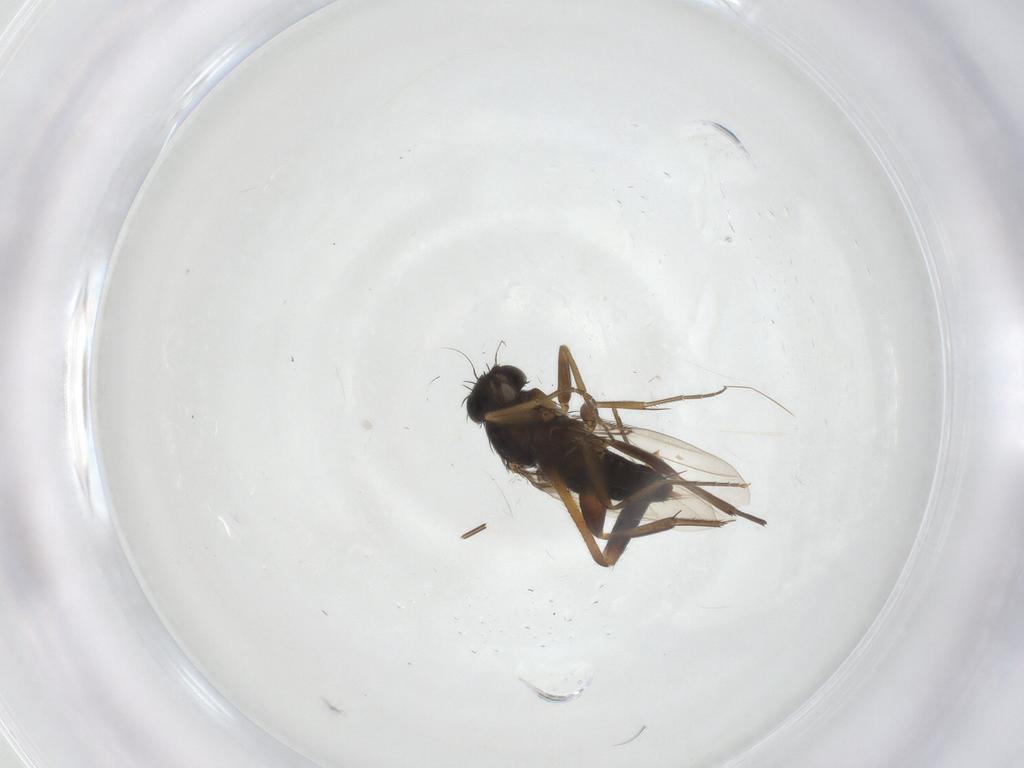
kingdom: Animalia
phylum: Arthropoda
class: Insecta
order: Diptera
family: Phoridae
